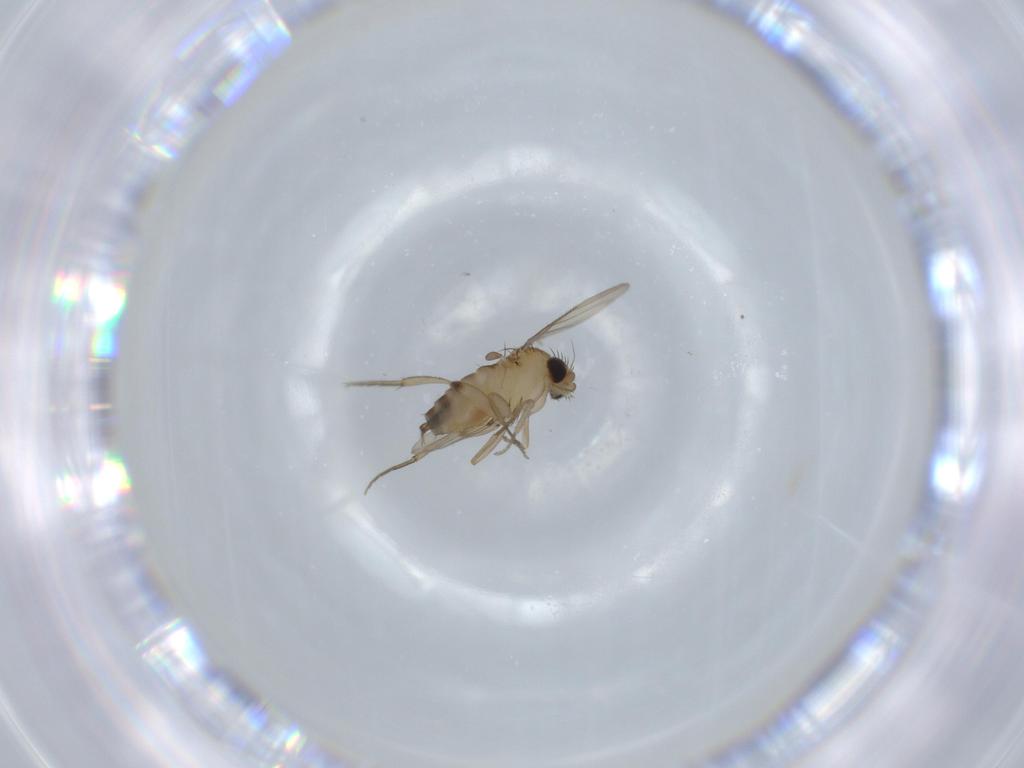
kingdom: Animalia
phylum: Arthropoda
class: Insecta
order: Diptera
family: Phoridae
